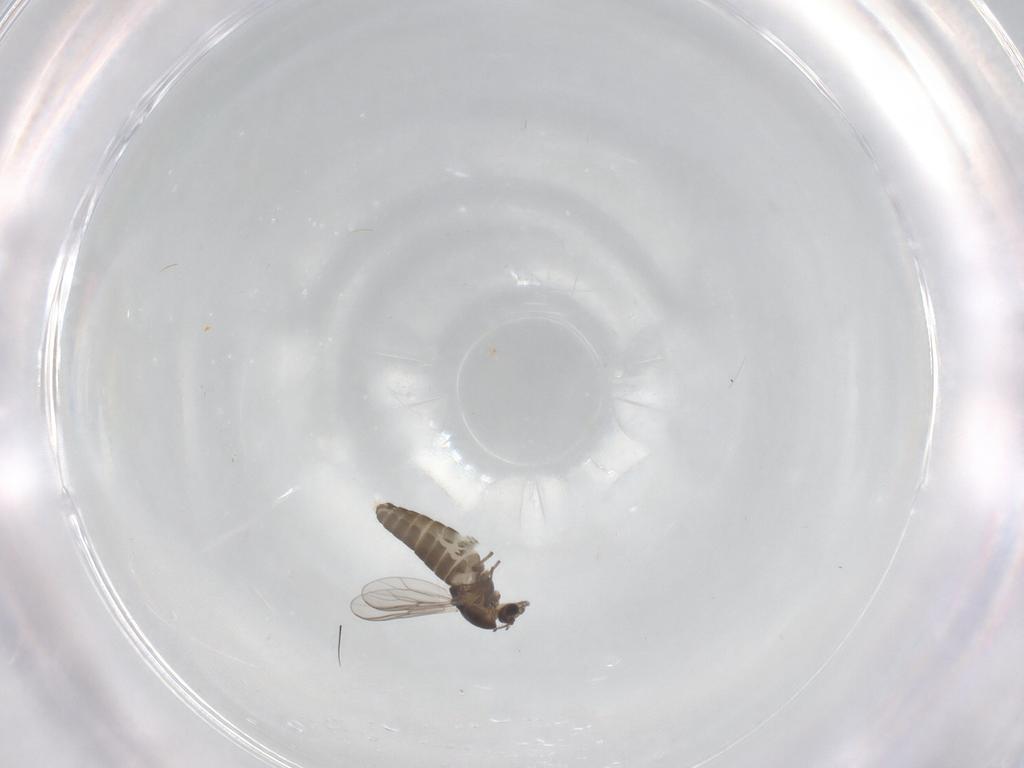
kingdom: Animalia
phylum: Arthropoda
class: Insecta
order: Diptera
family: Chironomidae
